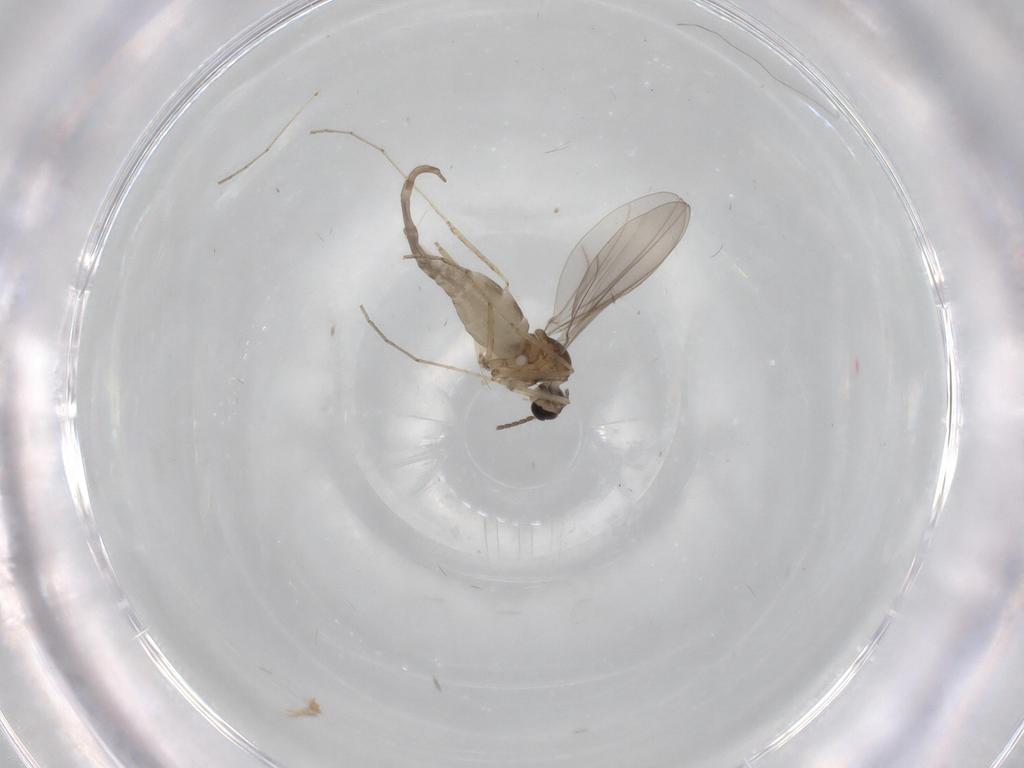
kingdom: Animalia
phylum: Arthropoda
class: Insecta
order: Diptera
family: Cecidomyiidae
